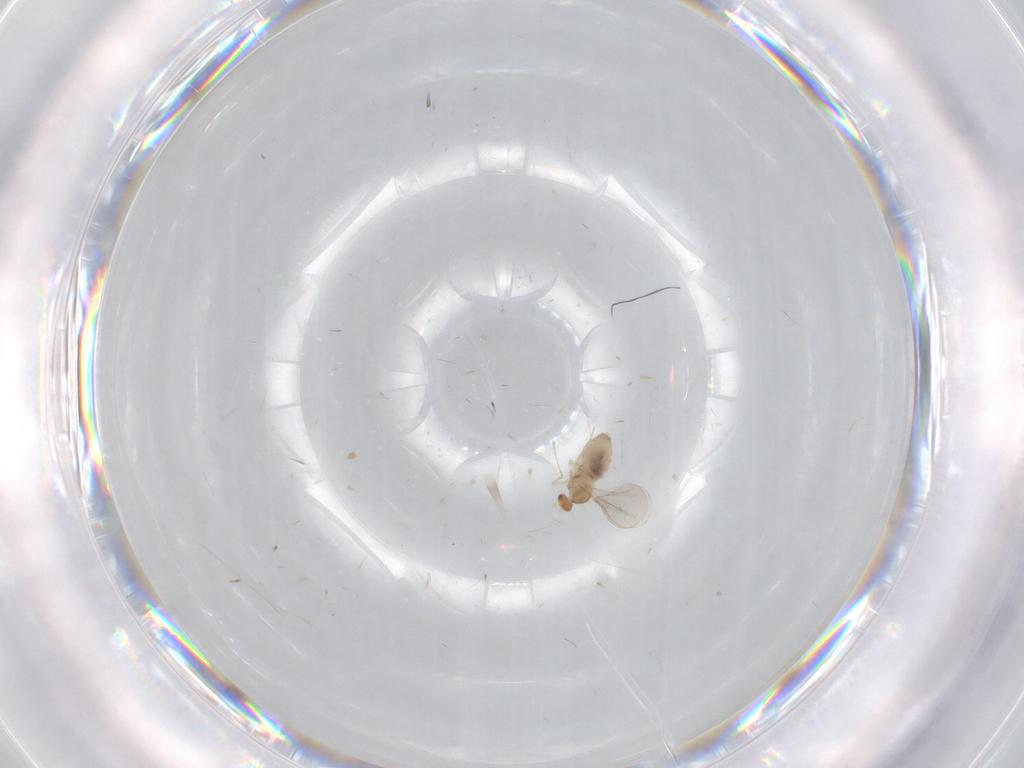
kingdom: Animalia
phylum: Arthropoda
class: Insecta
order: Diptera
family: Cecidomyiidae
